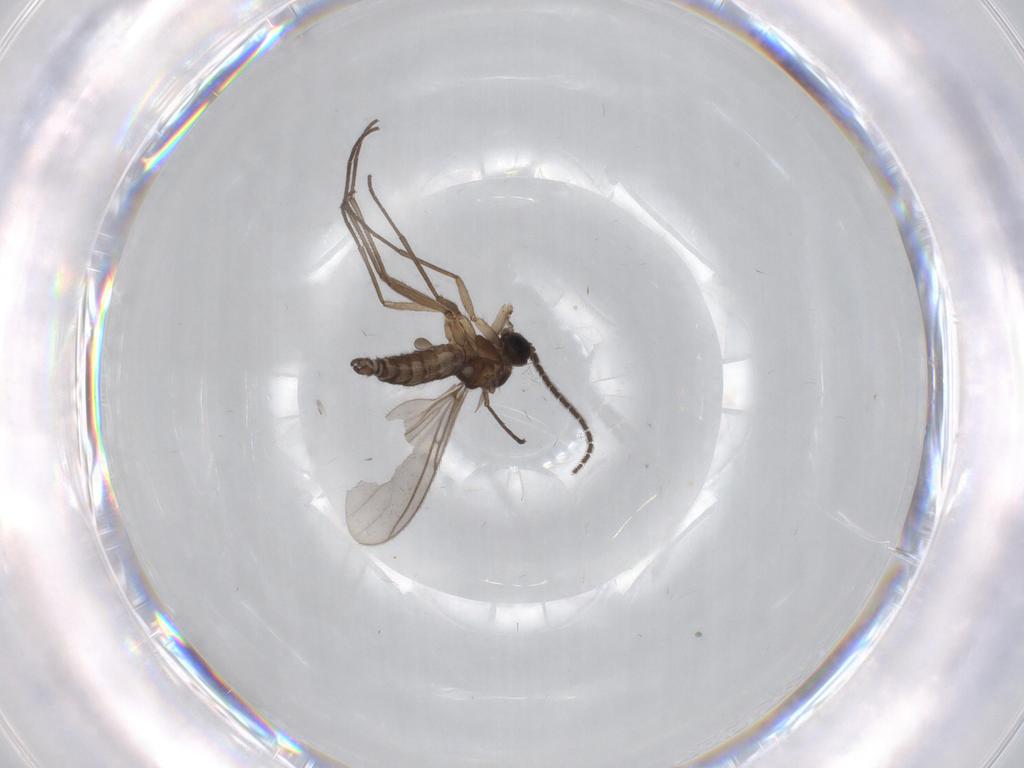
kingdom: Animalia
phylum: Arthropoda
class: Insecta
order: Diptera
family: Sciaridae
